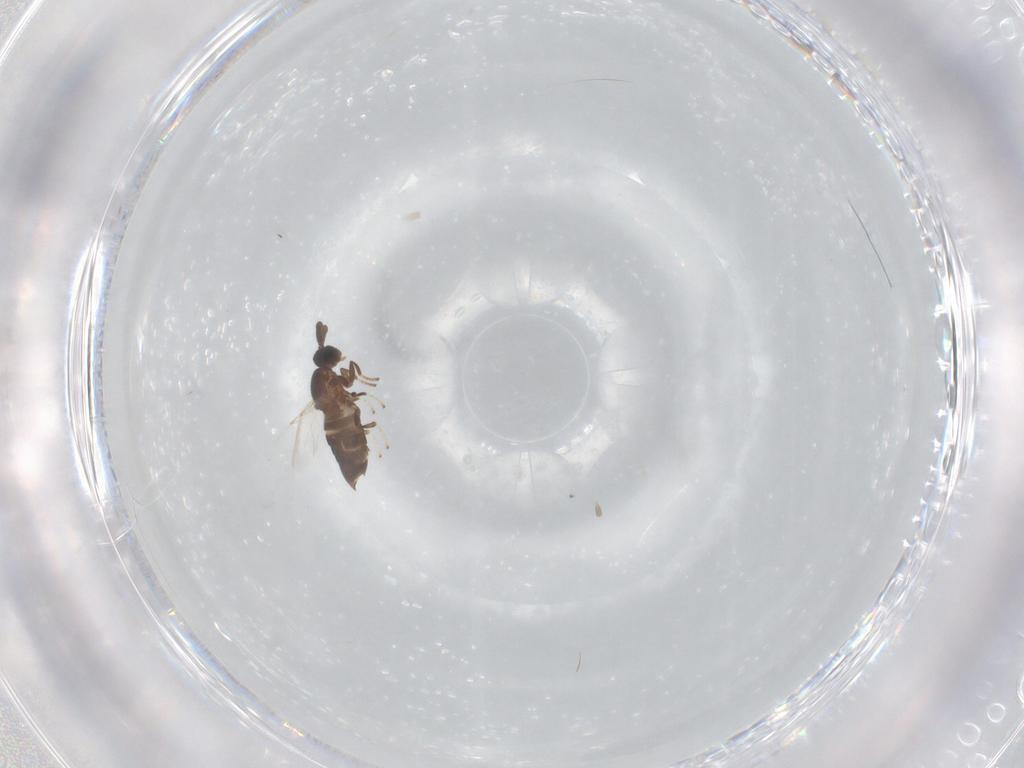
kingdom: Animalia
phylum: Arthropoda
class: Insecta
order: Diptera
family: Scatopsidae
